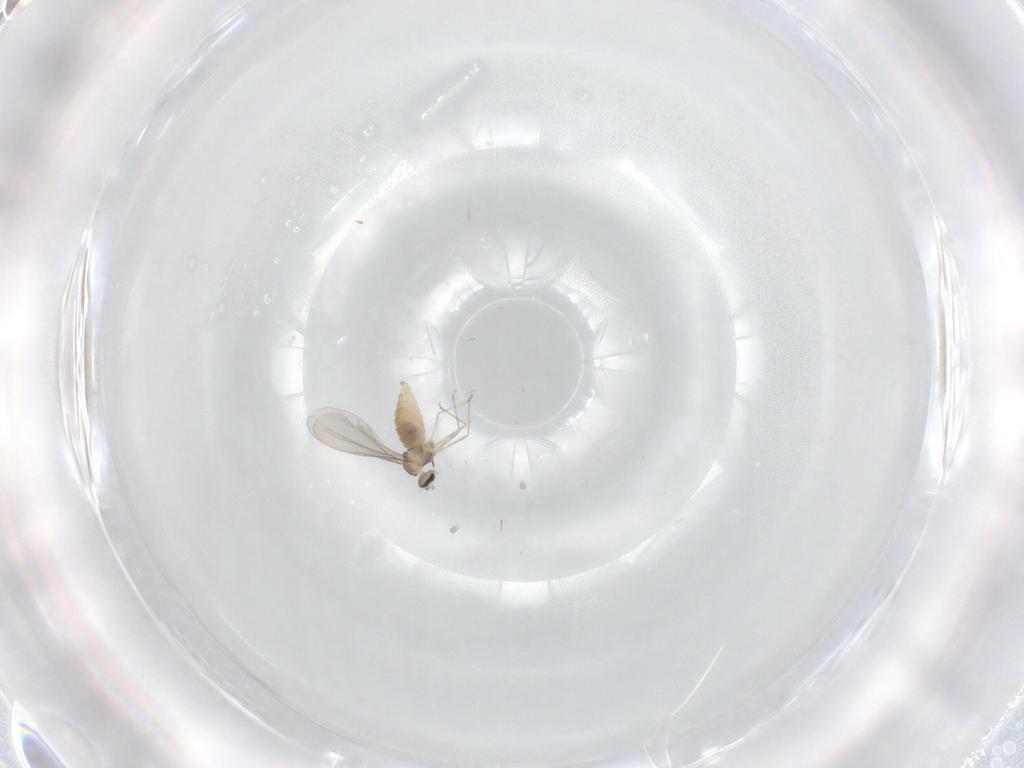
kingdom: Animalia
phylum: Arthropoda
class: Insecta
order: Diptera
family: Cecidomyiidae
